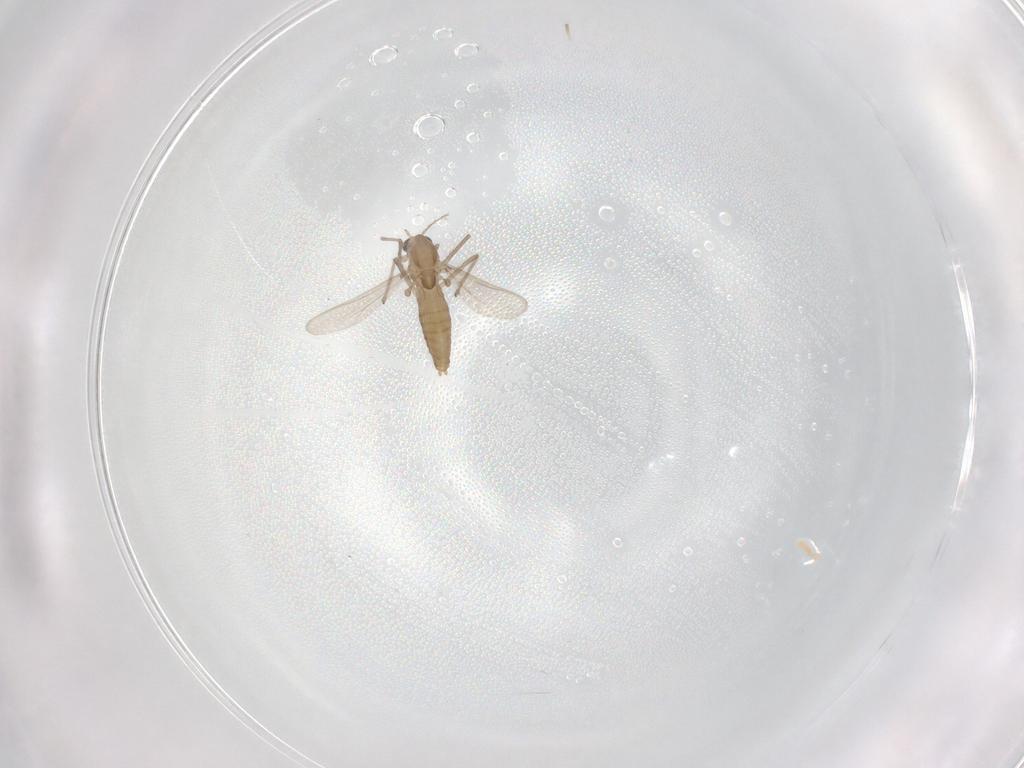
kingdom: Animalia
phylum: Arthropoda
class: Insecta
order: Diptera
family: Chironomidae
